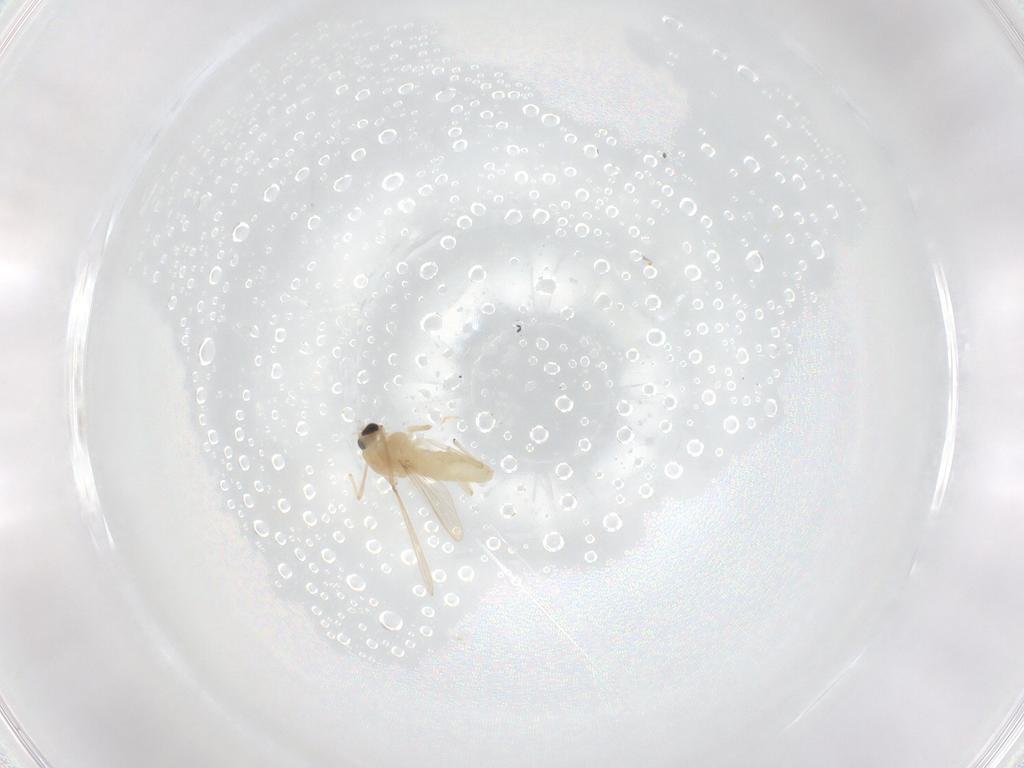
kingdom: Animalia
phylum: Arthropoda
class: Insecta
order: Diptera
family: Chironomidae
